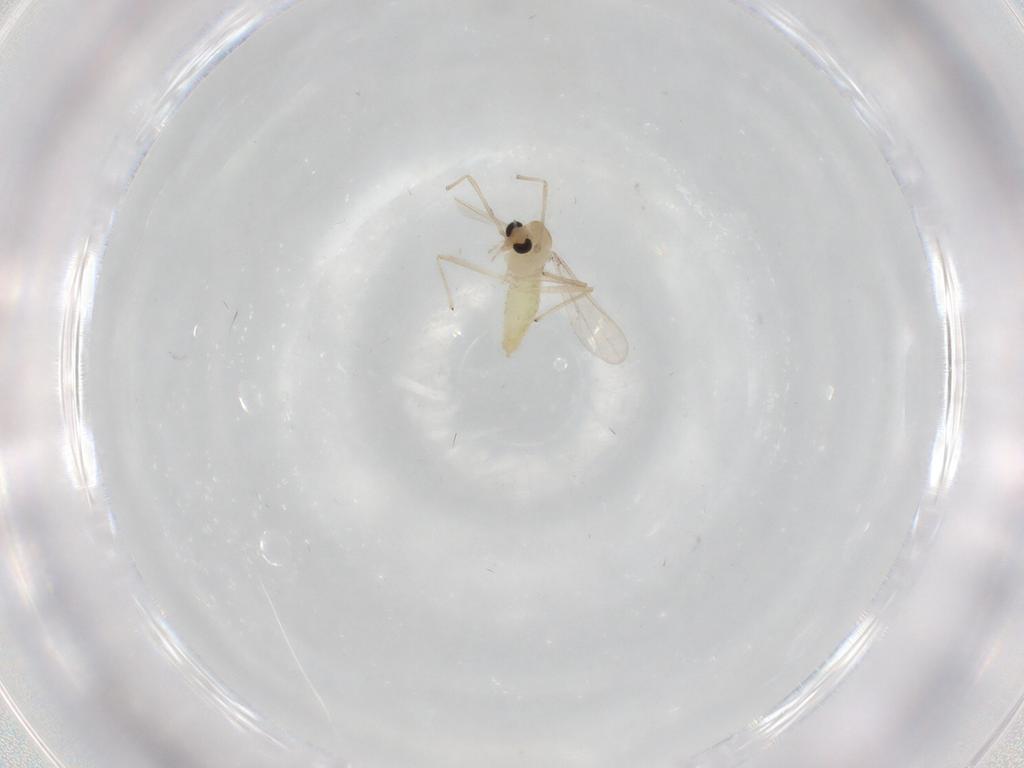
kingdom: Animalia
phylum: Arthropoda
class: Insecta
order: Diptera
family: Chironomidae
